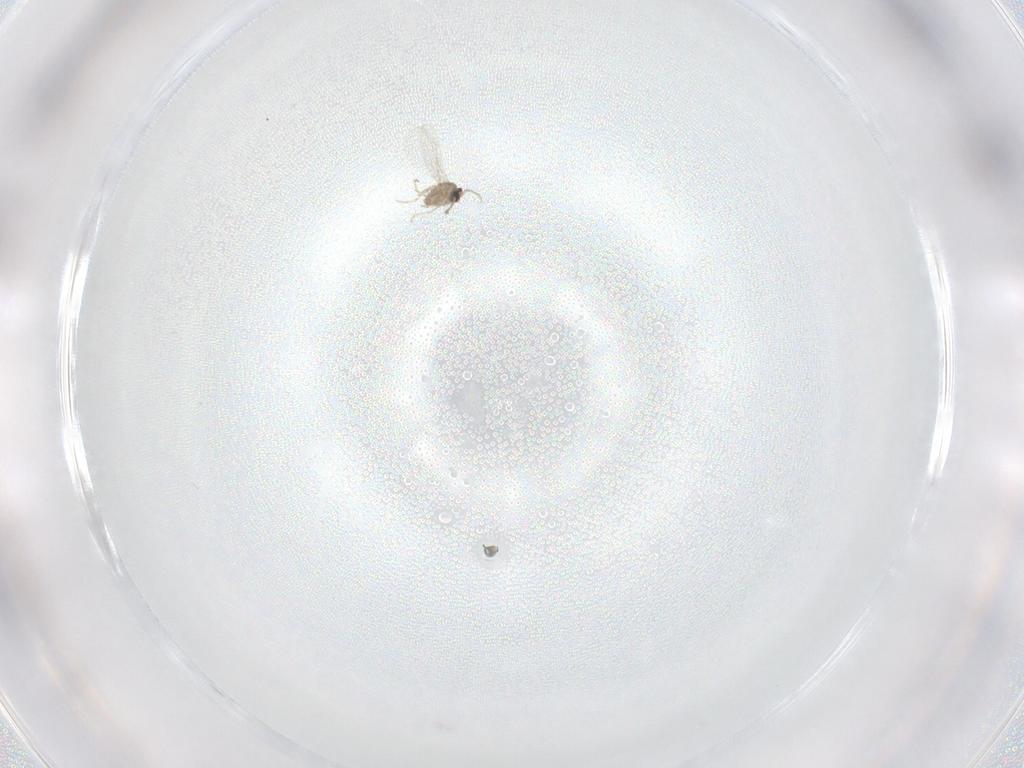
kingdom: Animalia
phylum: Arthropoda
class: Insecta
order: Diptera
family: Cecidomyiidae
